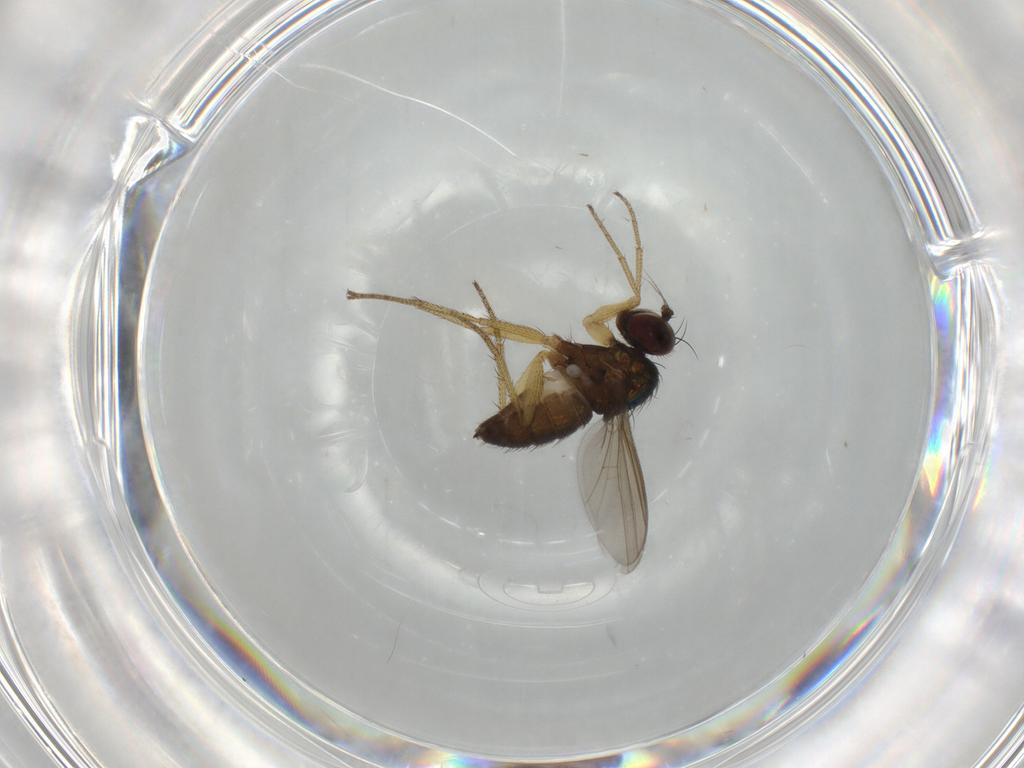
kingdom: Animalia
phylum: Arthropoda
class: Insecta
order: Diptera
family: Dolichopodidae
